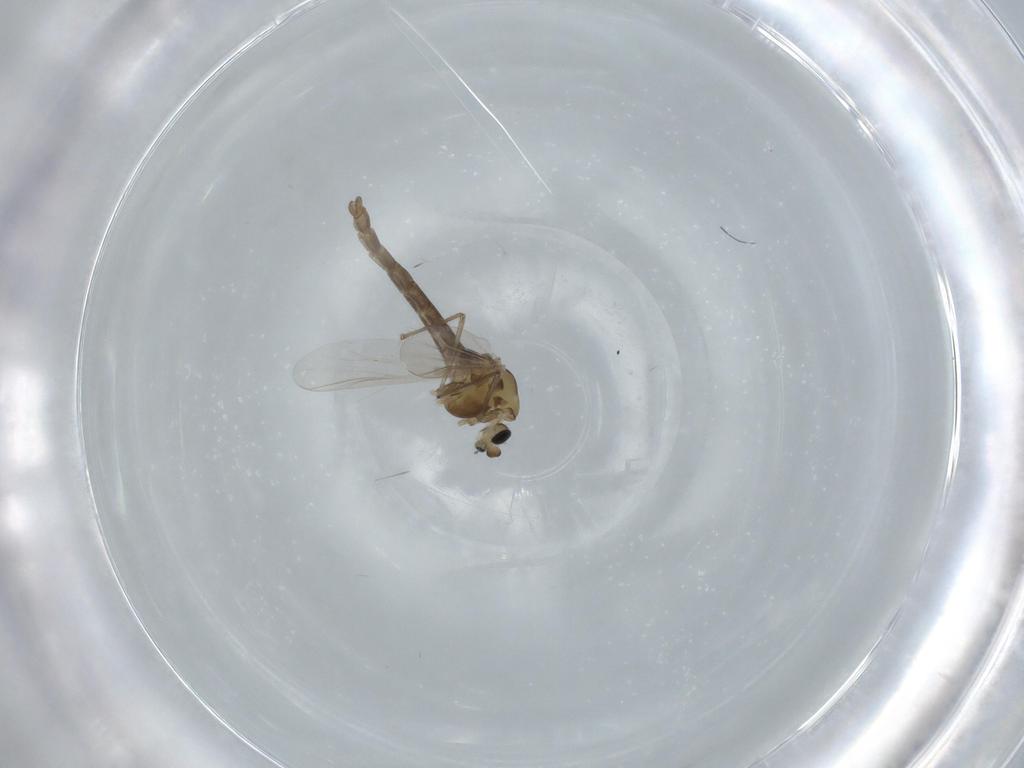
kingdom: Animalia
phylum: Arthropoda
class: Insecta
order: Diptera
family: Chironomidae
